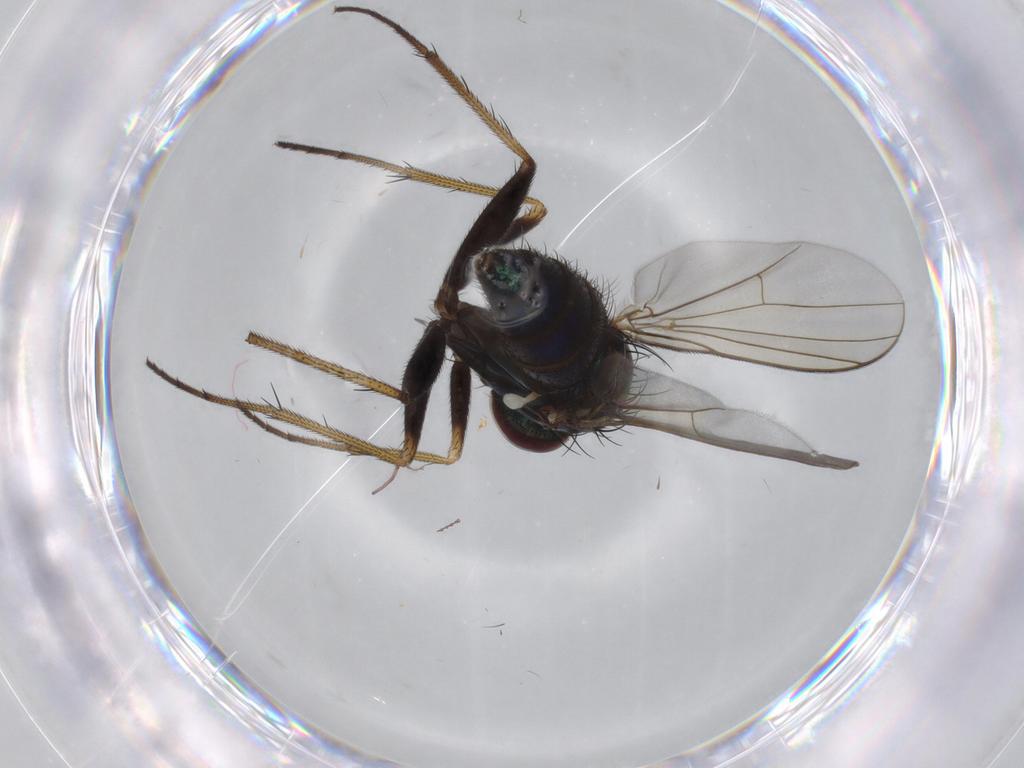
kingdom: Animalia
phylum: Arthropoda
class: Insecta
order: Diptera
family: Dolichopodidae
